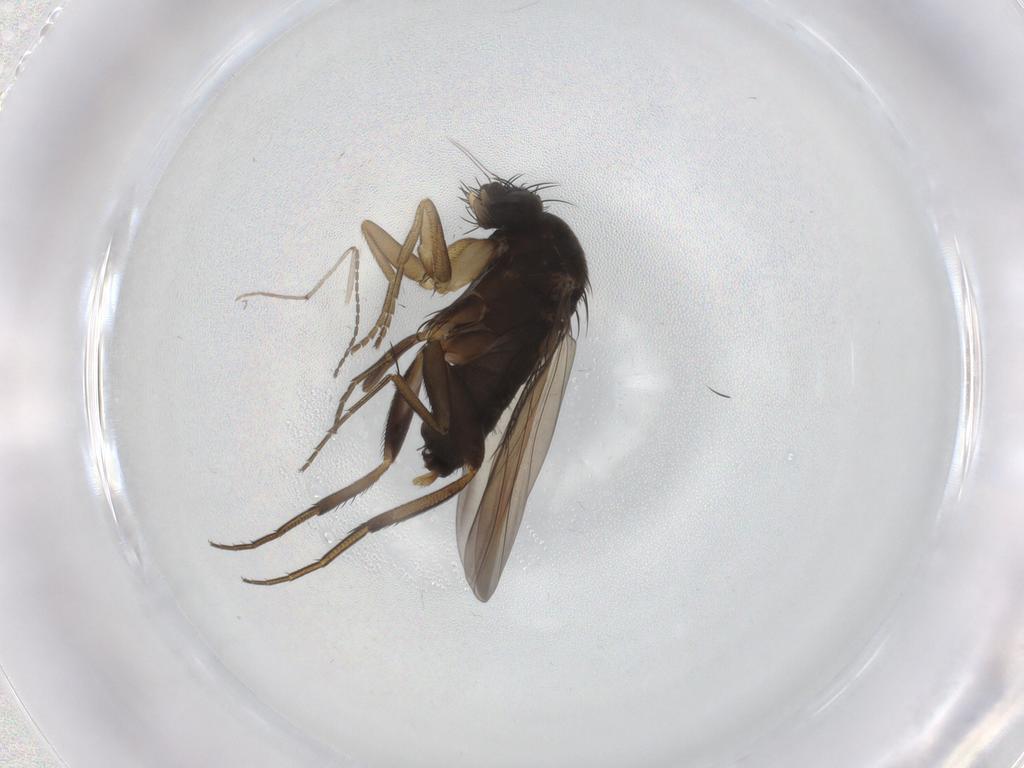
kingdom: Animalia
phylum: Arthropoda
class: Insecta
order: Diptera
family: Phoridae
